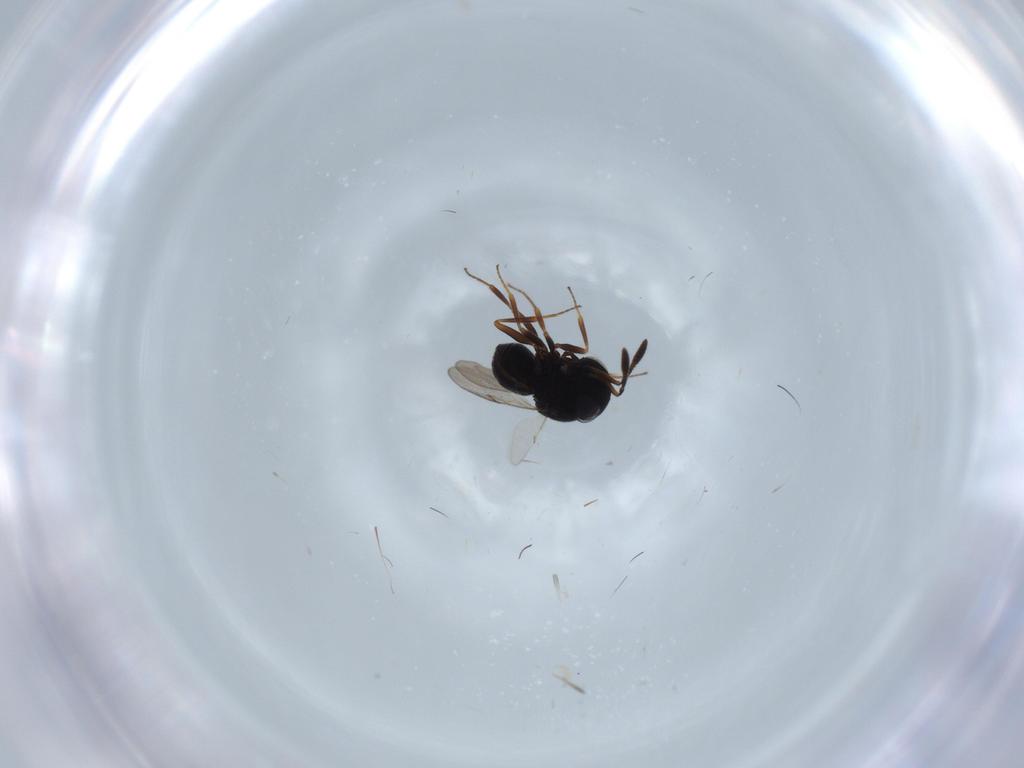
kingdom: Animalia
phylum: Arthropoda
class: Insecta
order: Hymenoptera
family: Scelionidae
